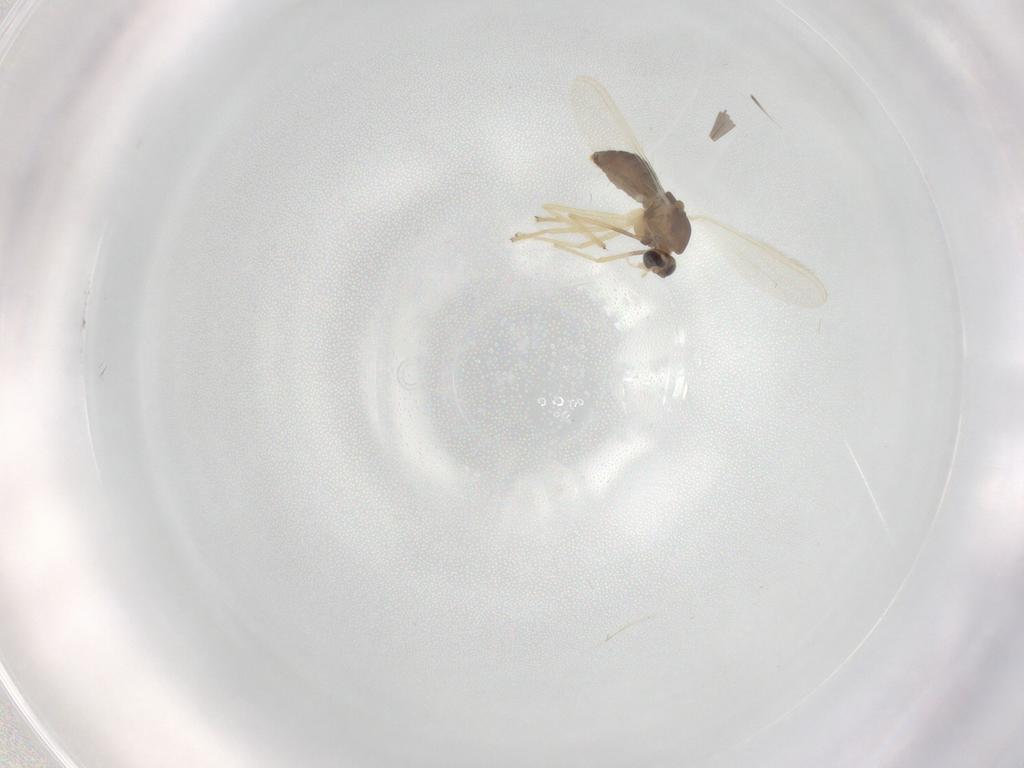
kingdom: Animalia
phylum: Arthropoda
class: Insecta
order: Diptera
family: Chironomidae
